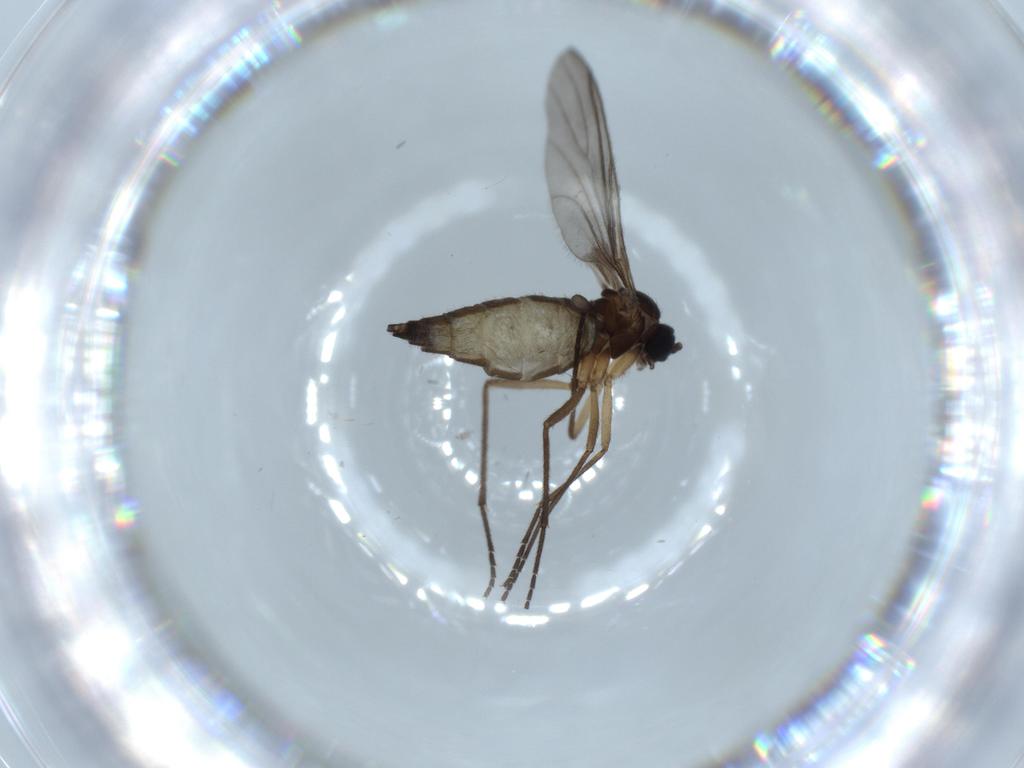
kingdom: Animalia
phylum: Arthropoda
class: Insecta
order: Diptera
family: Sciaridae
